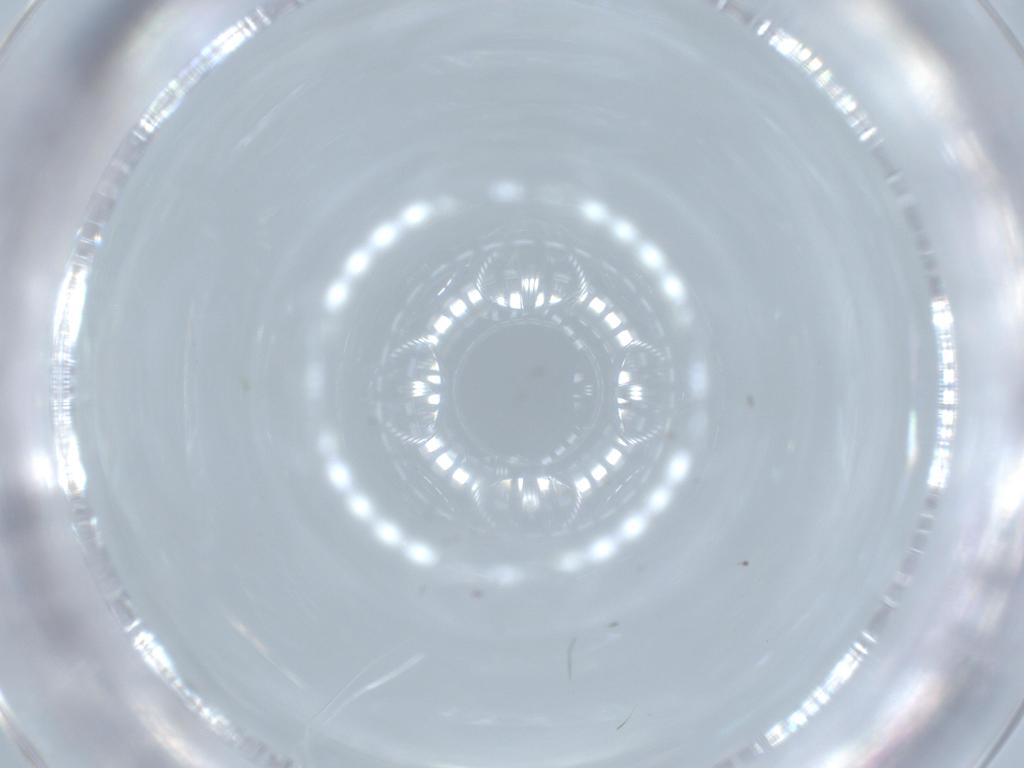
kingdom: Animalia
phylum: Arthropoda
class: Insecta
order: Diptera
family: Cecidomyiidae
